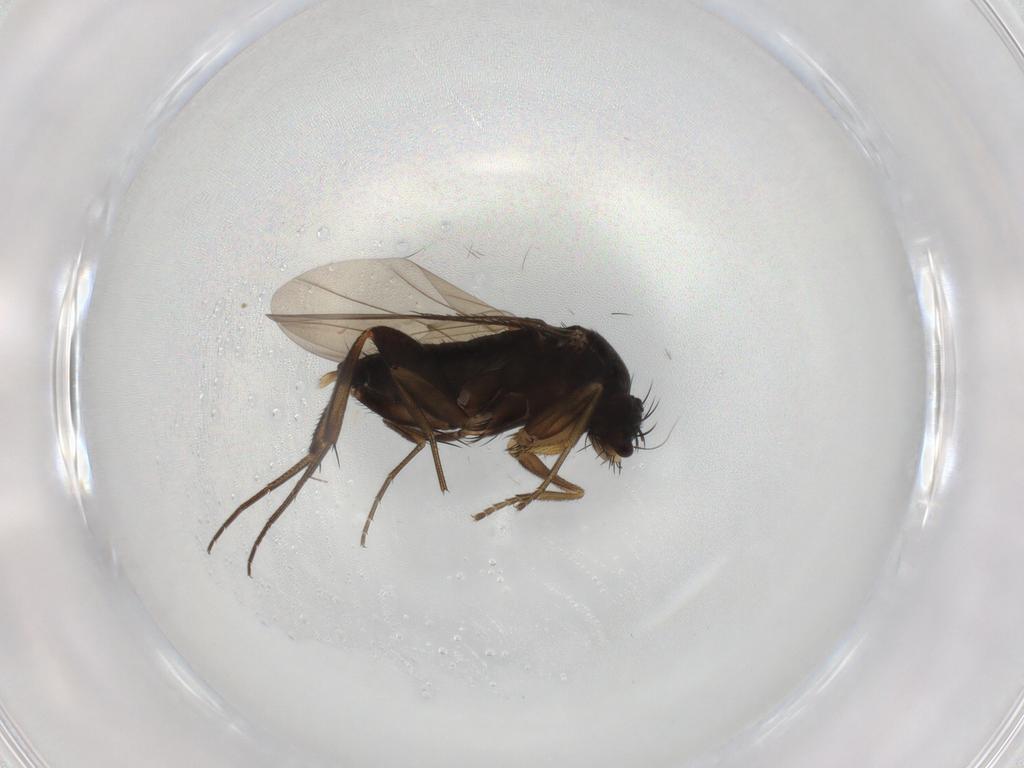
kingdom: Animalia
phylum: Arthropoda
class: Insecta
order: Diptera
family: Phoridae
